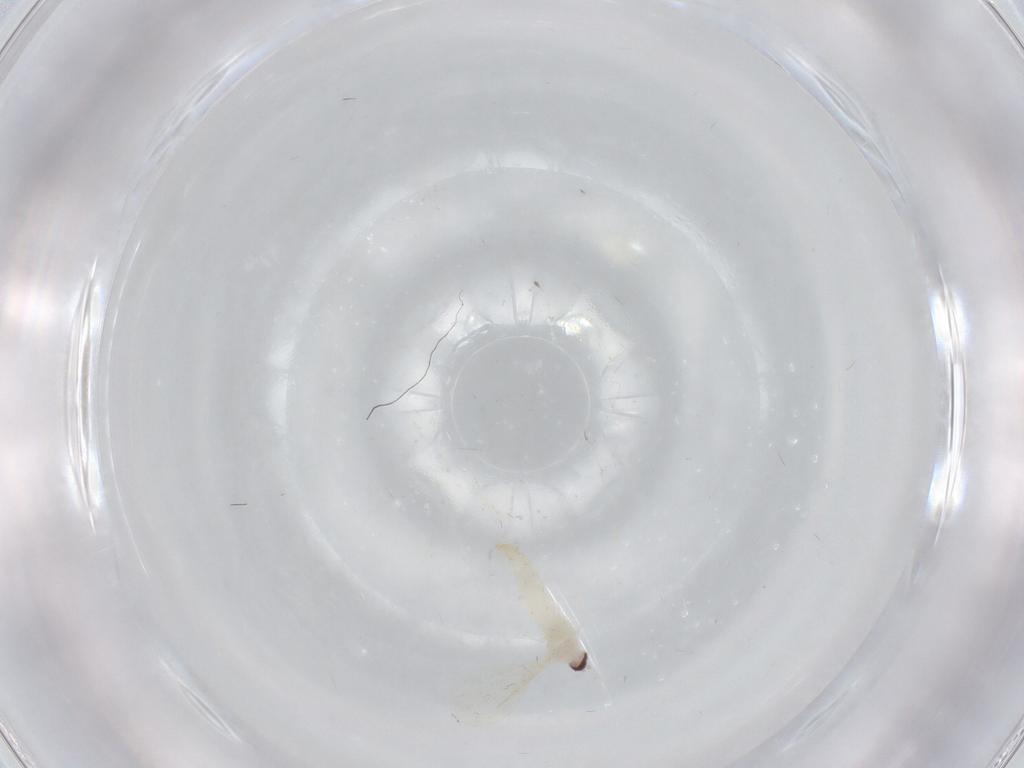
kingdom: Animalia
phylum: Arthropoda
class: Insecta
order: Diptera
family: Cecidomyiidae
